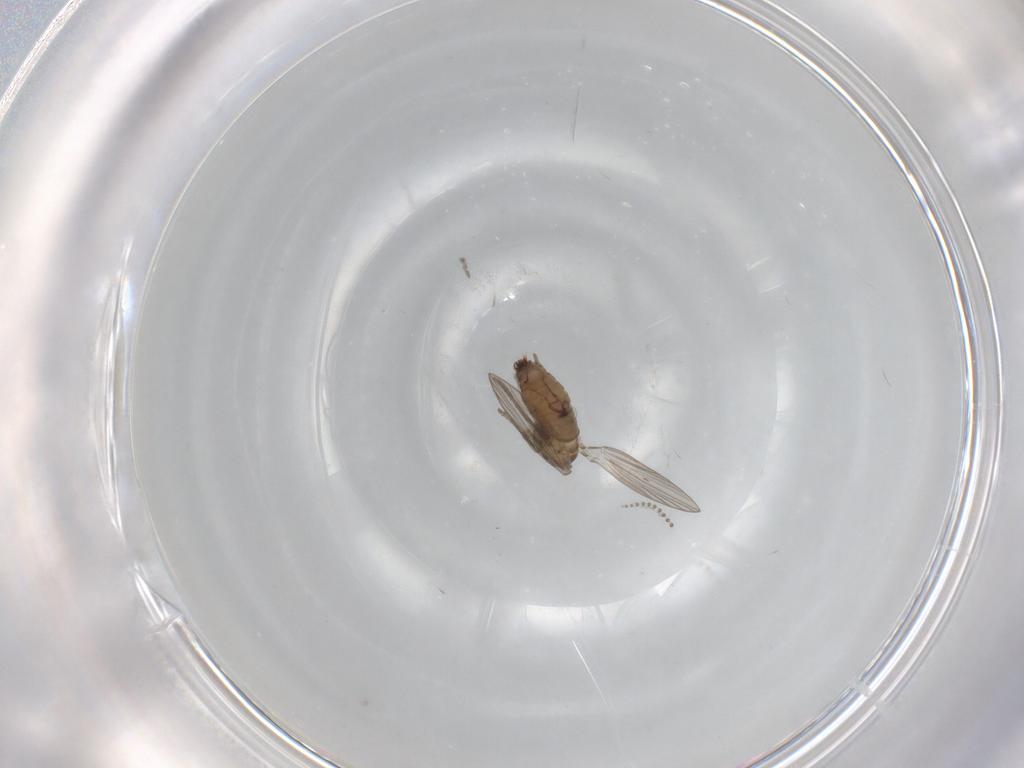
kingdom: Animalia
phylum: Arthropoda
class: Insecta
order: Diptera
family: Psychodidae
